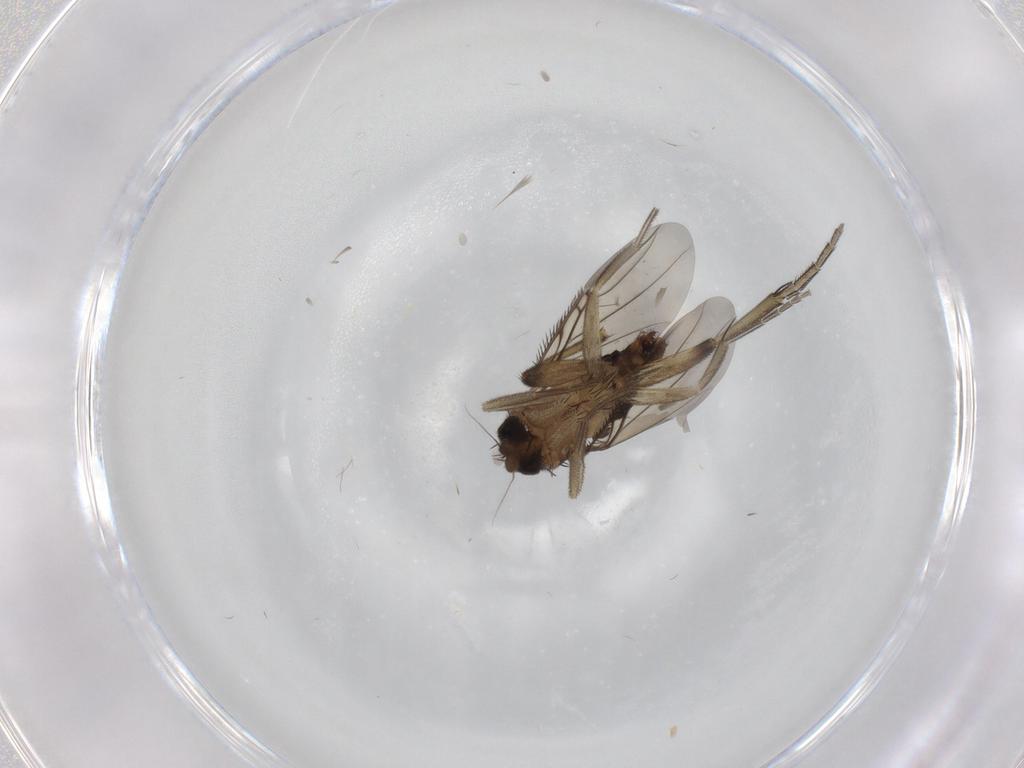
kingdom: Animalia
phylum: Arthropoda
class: Insecta
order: Diptera
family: Phoridae
